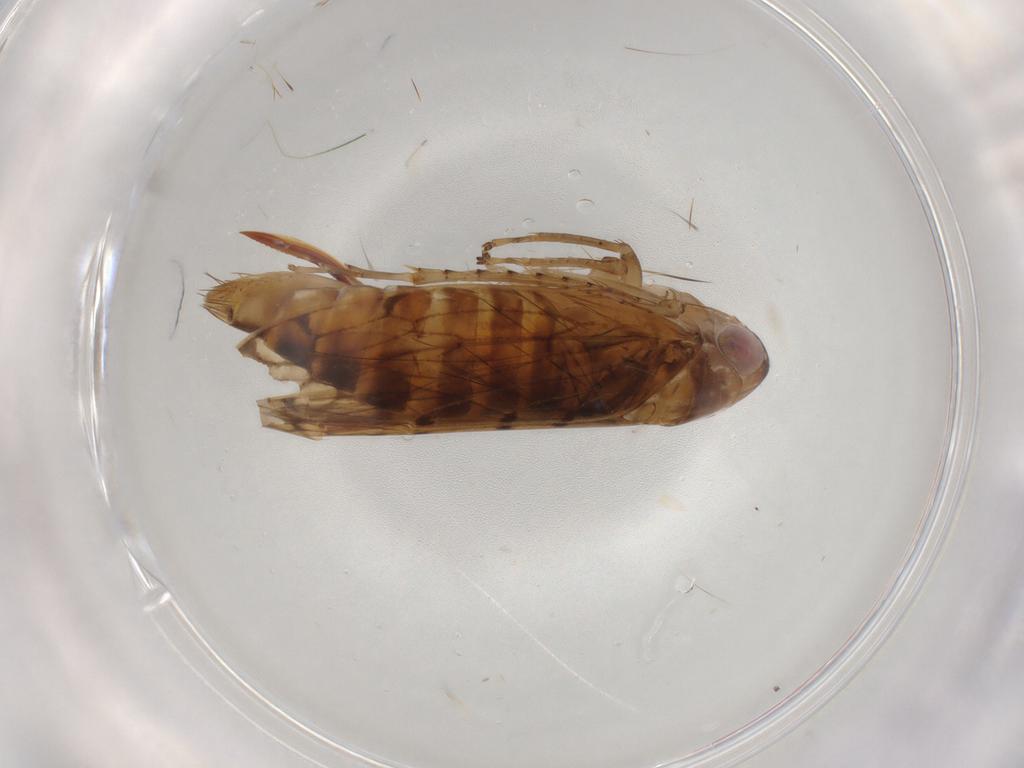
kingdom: Animalia
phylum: Arthropoda
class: Insecta
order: Hemiptera
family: Cicadellidae
